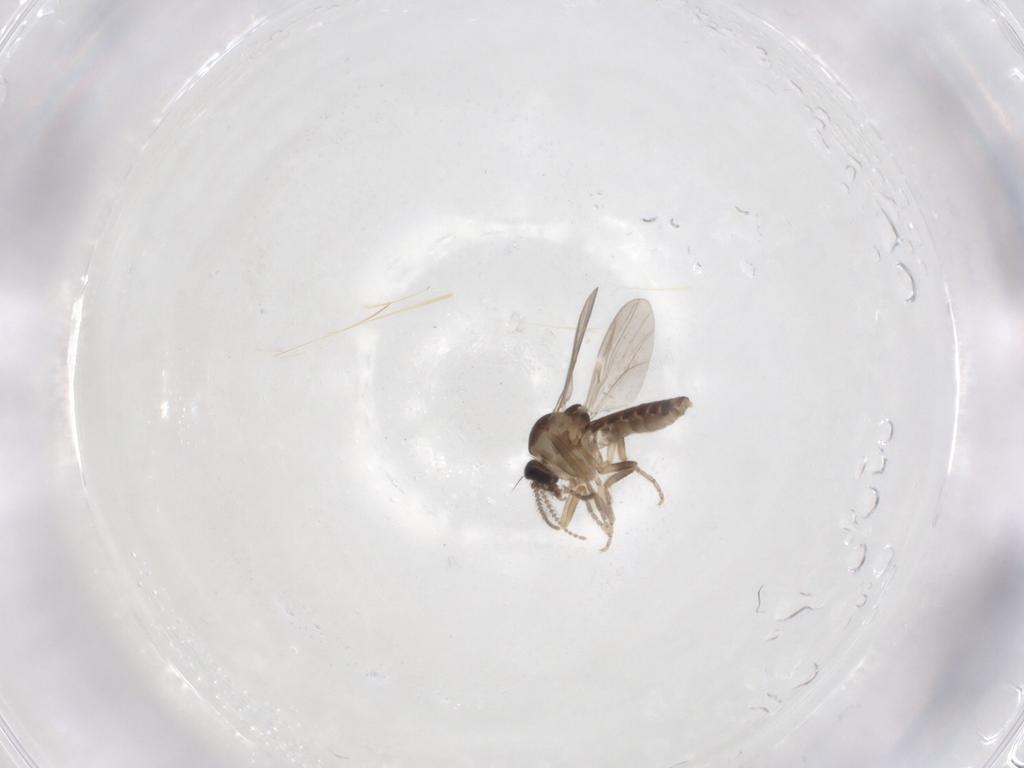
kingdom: Animalia
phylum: Arthropoda
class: Insecta
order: Diptera
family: Ceratopogonidae
